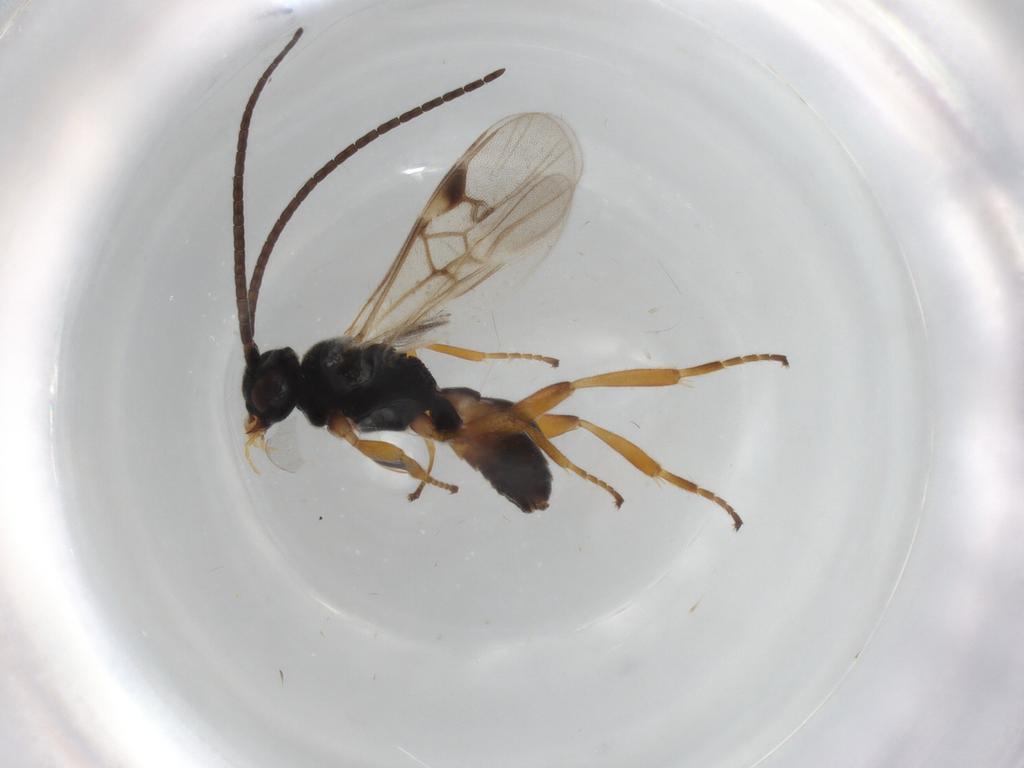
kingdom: Animalia
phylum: Arthropoda
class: Insecta
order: Hymenoptera
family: Braconidae
